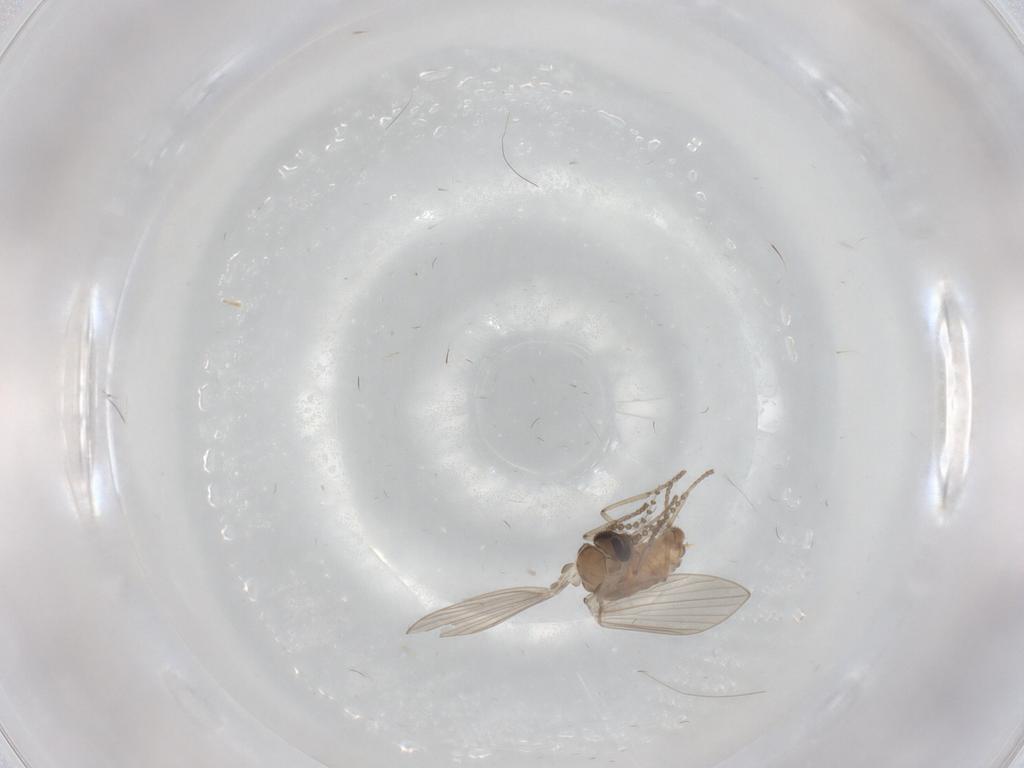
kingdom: Animalia
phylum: Arthropoda
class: Insecta
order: Diptera
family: Psychodidae
